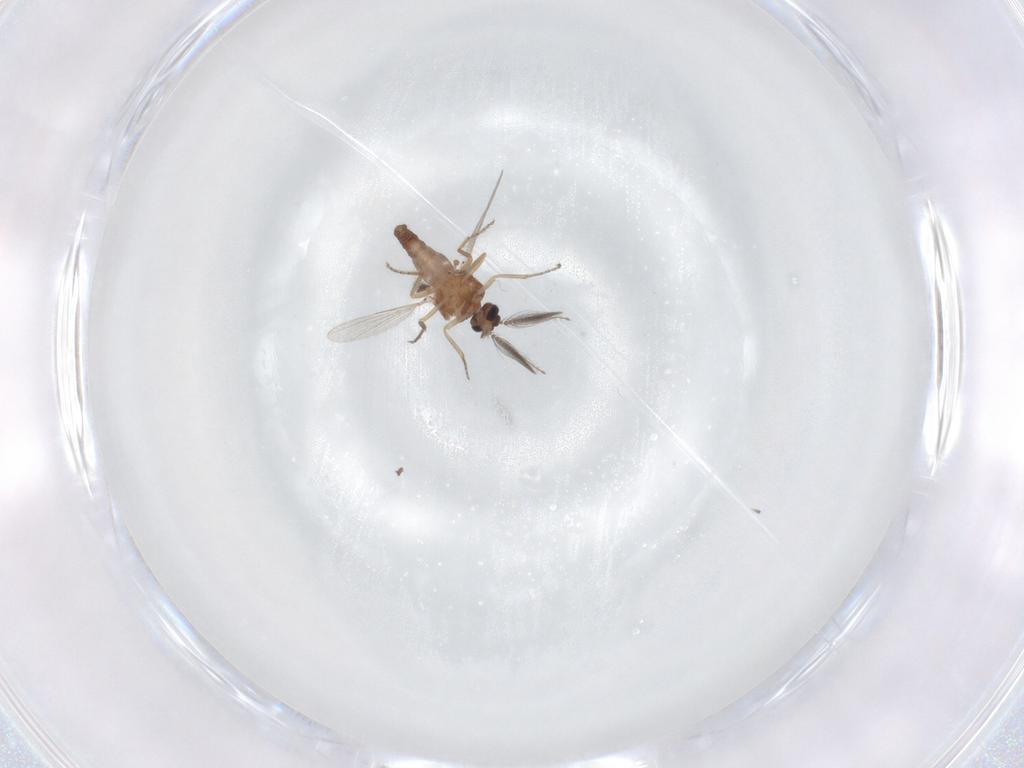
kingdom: Animalia
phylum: Arthropoda
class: Insecta
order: Diptera
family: Ceratopogonidae
